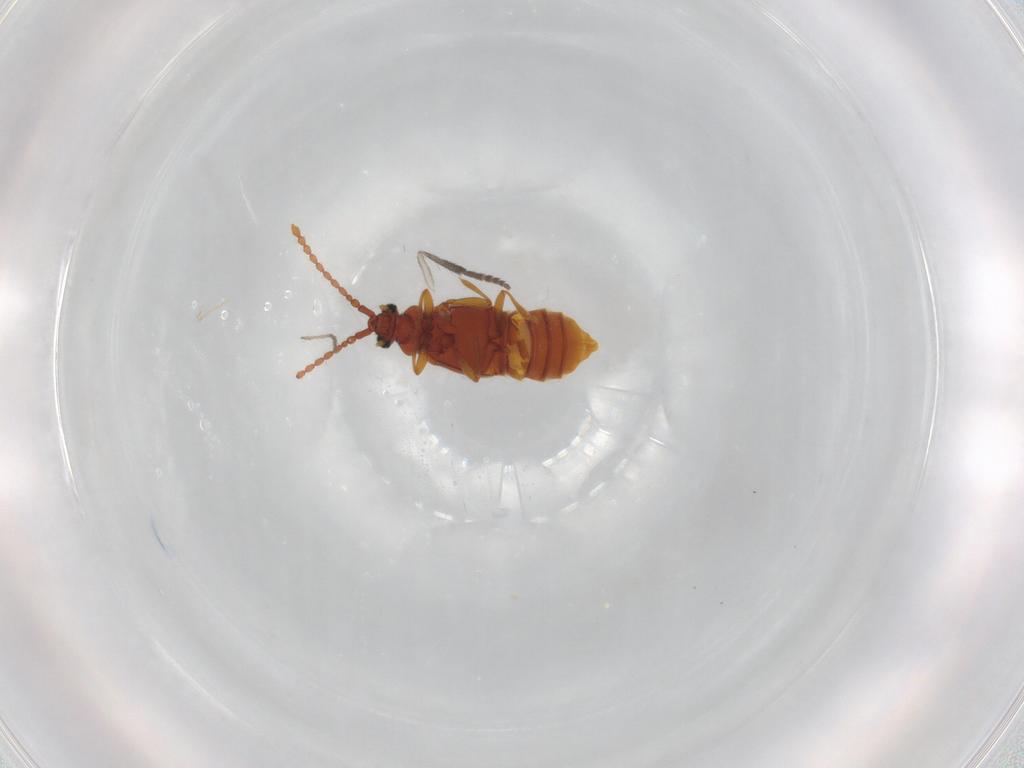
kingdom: Animalia
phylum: Arthropoda
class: Insecta
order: Coleoptera
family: Staphylinidae
